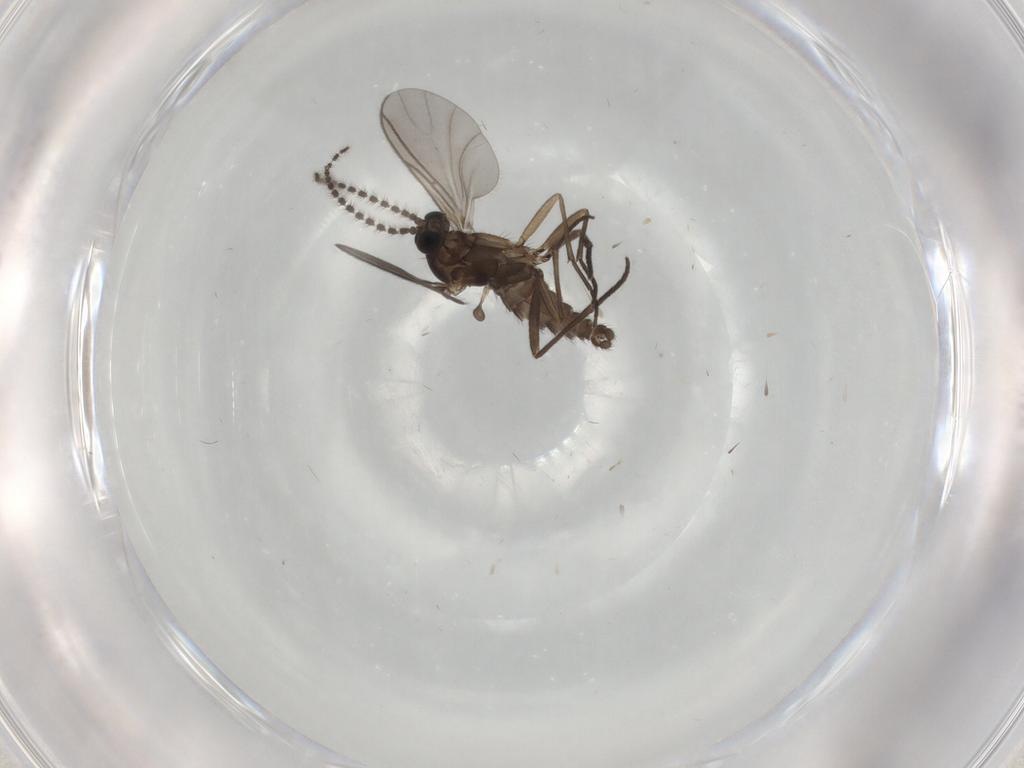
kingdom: Animalia
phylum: Arthropoda
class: Insecta
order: Diptera
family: Sciaridae
